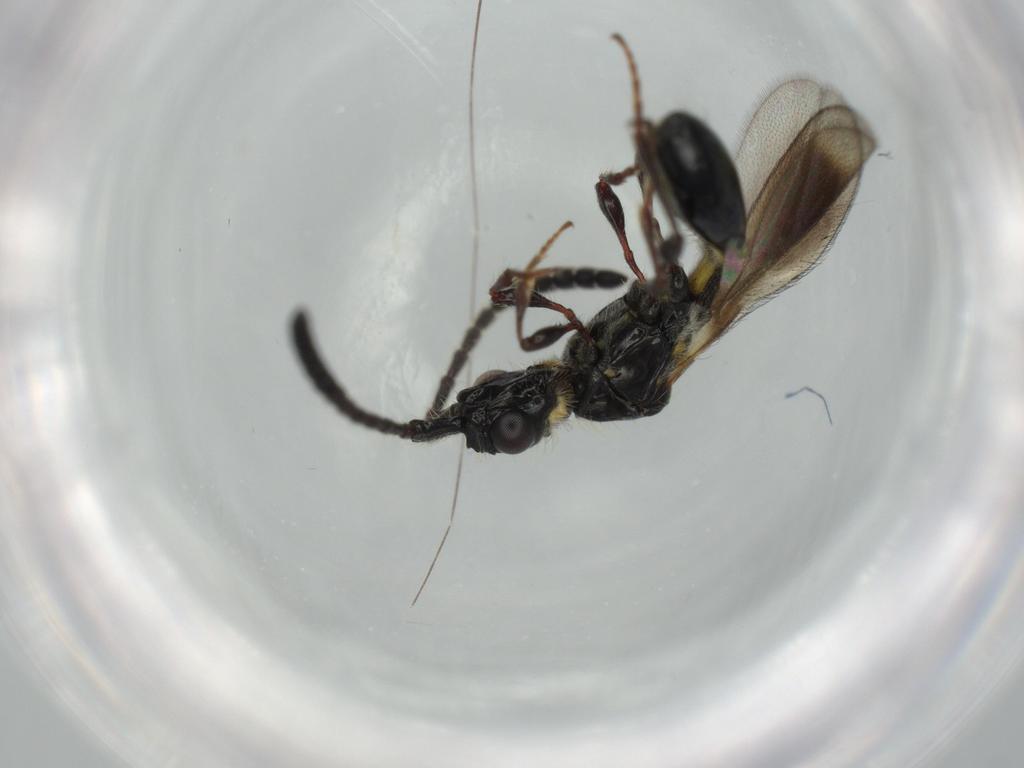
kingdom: Animalia
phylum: Arthropoda
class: Insecta
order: Hymenoptera
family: Diapriidae
